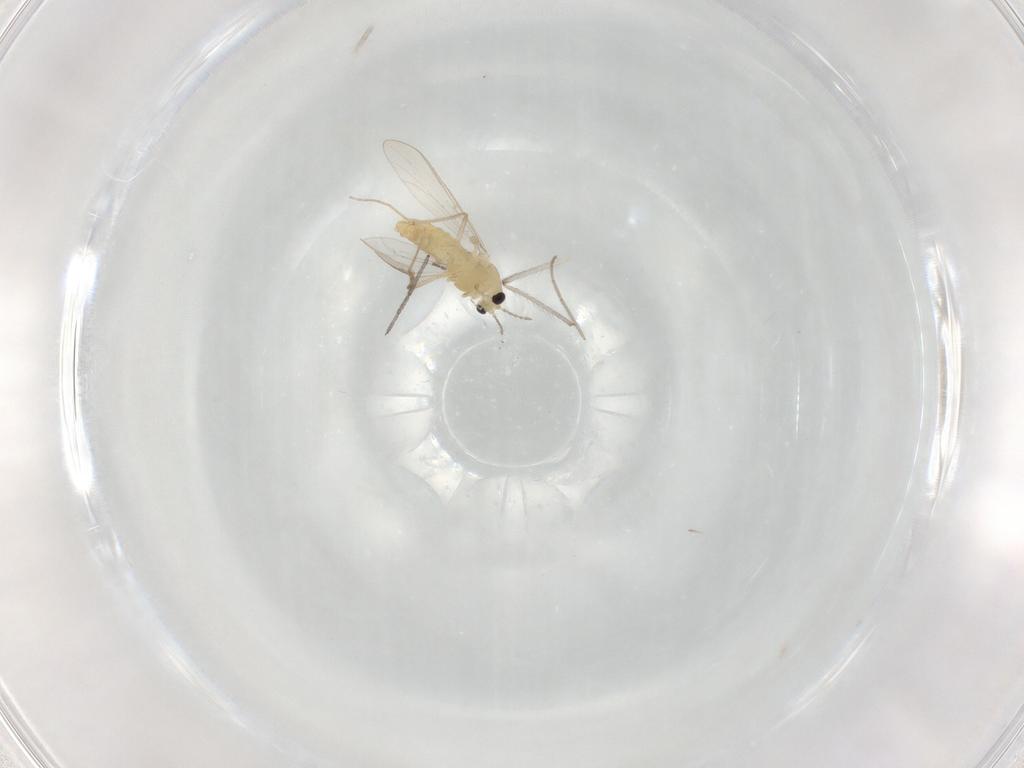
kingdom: Animalia
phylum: Arthropoda
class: Insecta
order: Diptera
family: Chironomidae
